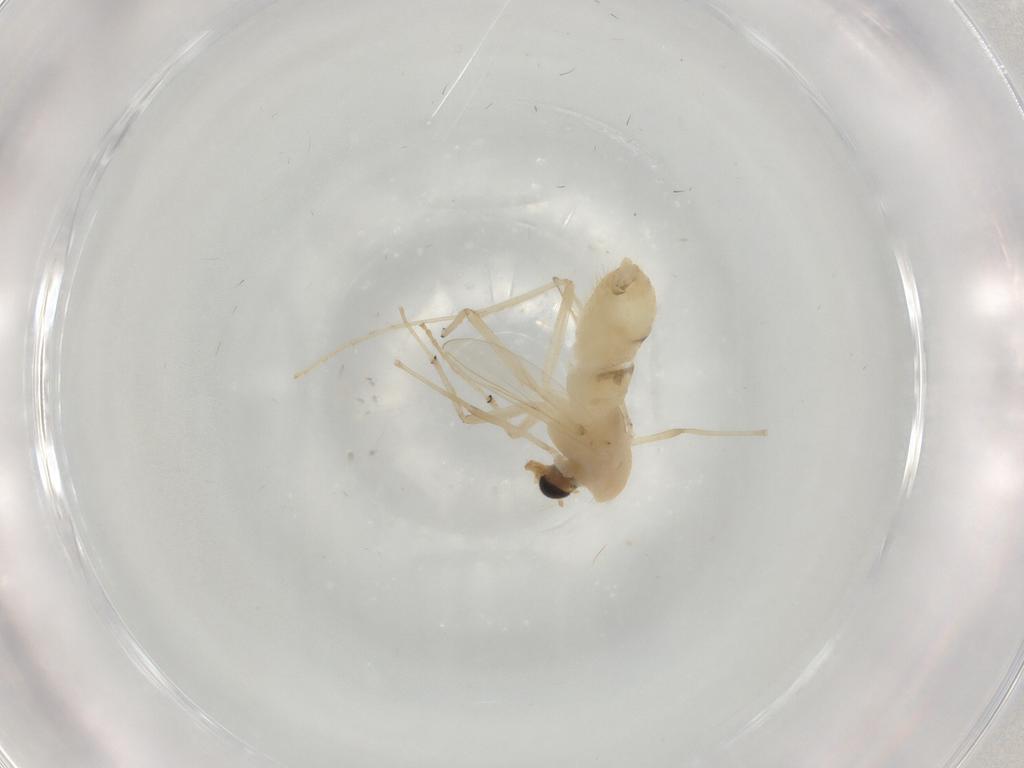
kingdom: Animalia
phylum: Arthropoda
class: Insecta
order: Diptera
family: Chironomidae
